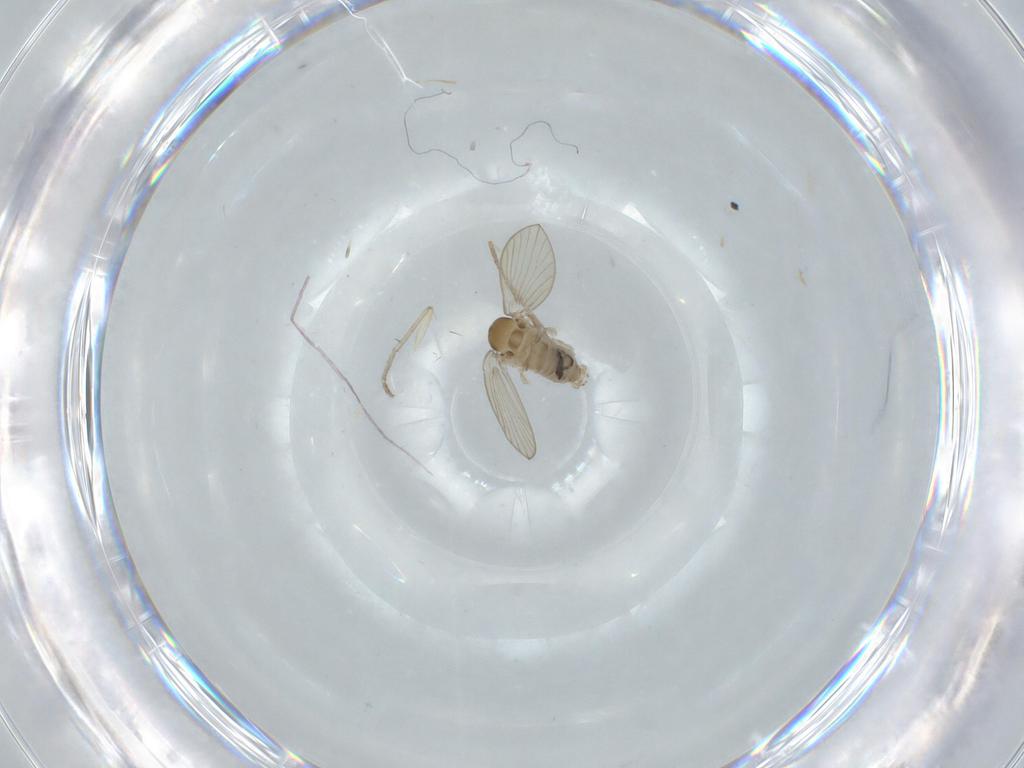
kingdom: Animalia
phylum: Arthropoda
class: Insecta
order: Diptera
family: Psychodidae
